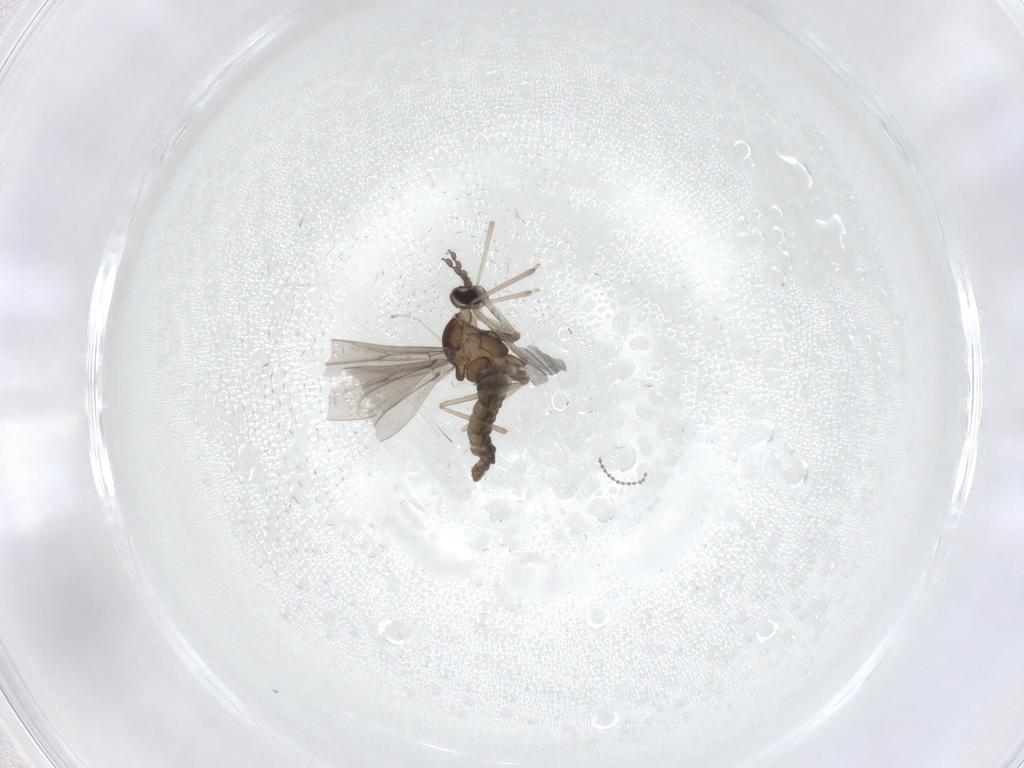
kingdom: Animalia
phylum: Arthropoda
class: Insecta
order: Diptera
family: Cecidomyiidae
